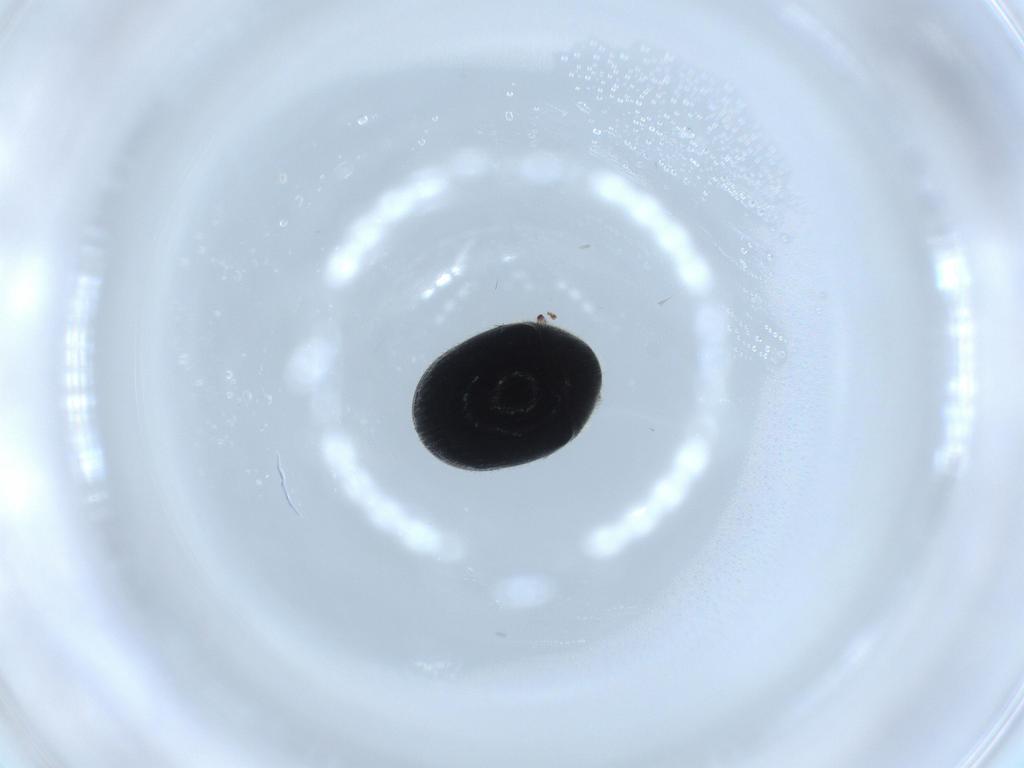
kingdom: Animalia
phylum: Arthropoda
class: Insecta
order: Coleoptera
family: Ptinidae
